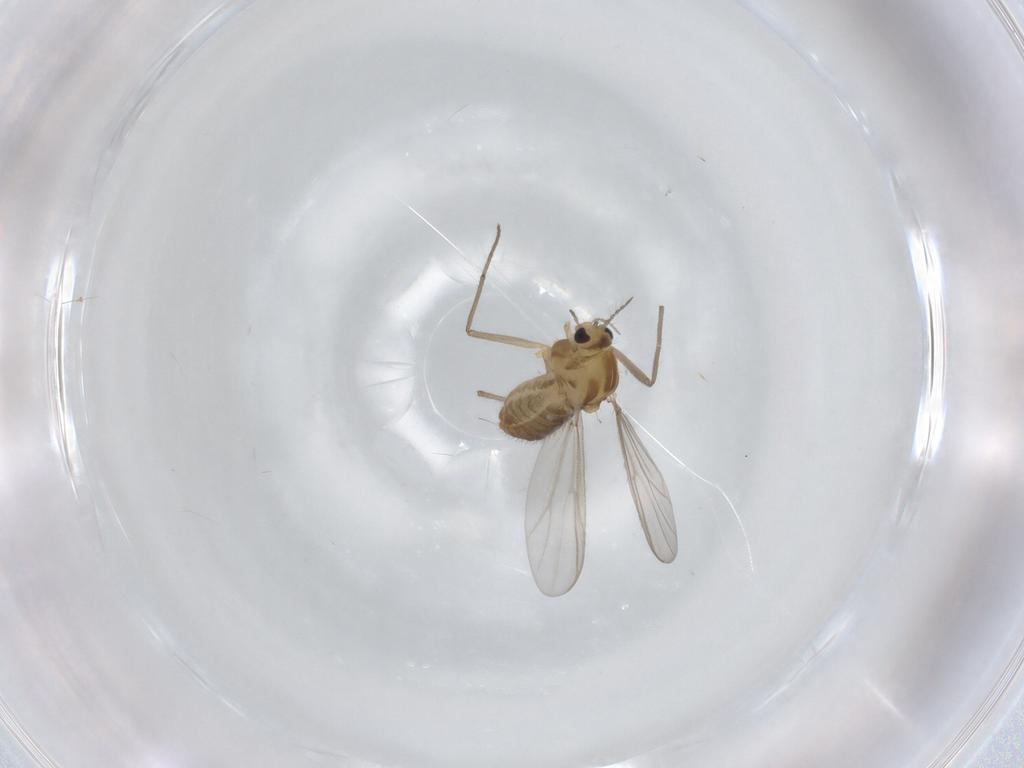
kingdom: Animalia
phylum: Arthropoda
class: Insecta
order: Diptera
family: Chironomidae
